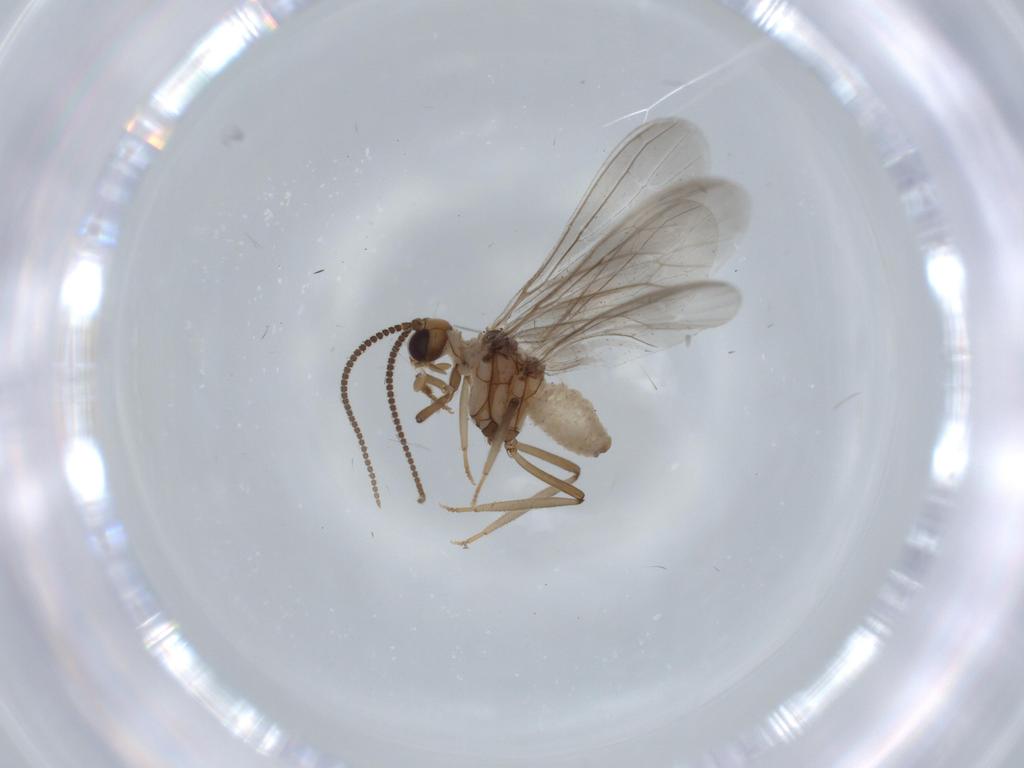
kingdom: Animalia
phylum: Arthropoda
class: Insecta
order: Neuroptera
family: Coniopterygidae
